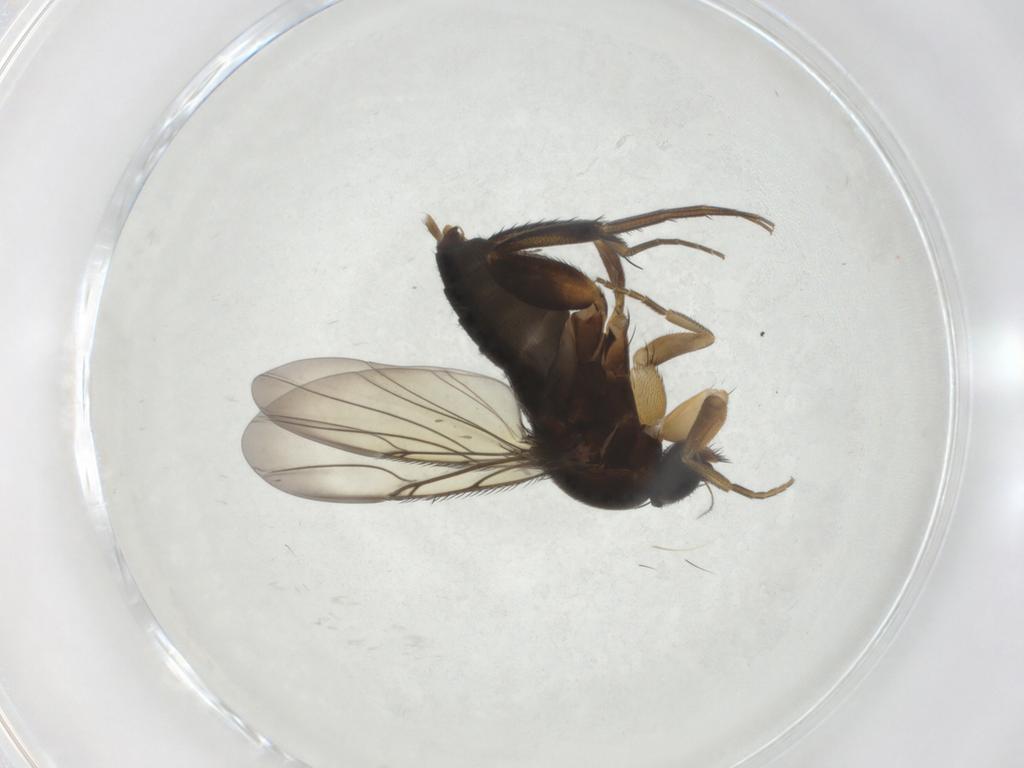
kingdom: Animalia
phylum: Arthropoda
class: Insecta
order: Diptera
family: Phoridae
